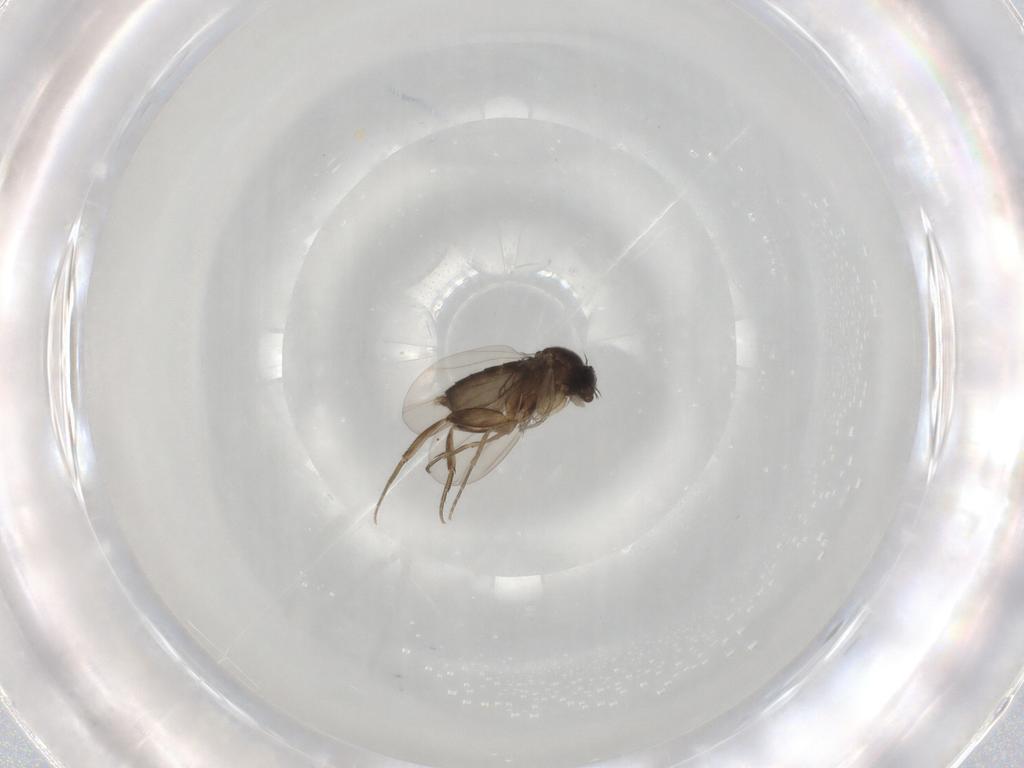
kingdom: Animalia
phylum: Arthropoda
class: Insecta
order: Diptera
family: Phoridae
